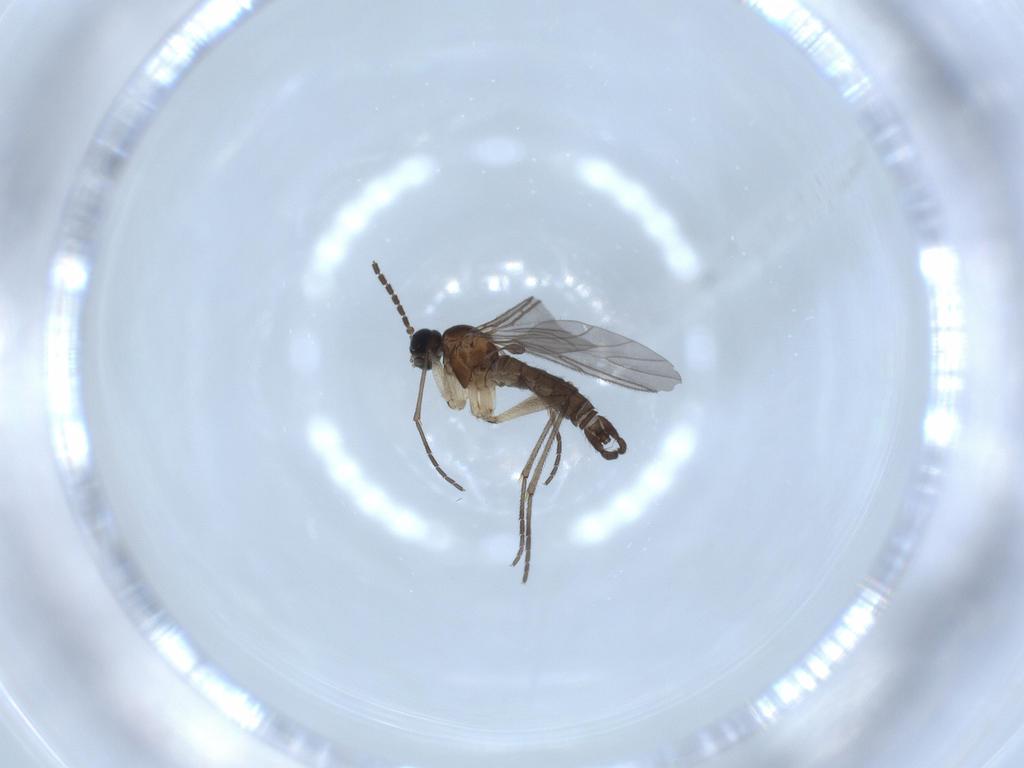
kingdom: Animalia
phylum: Arthropoda
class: Insecta
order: Diptera
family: Sciaridae
